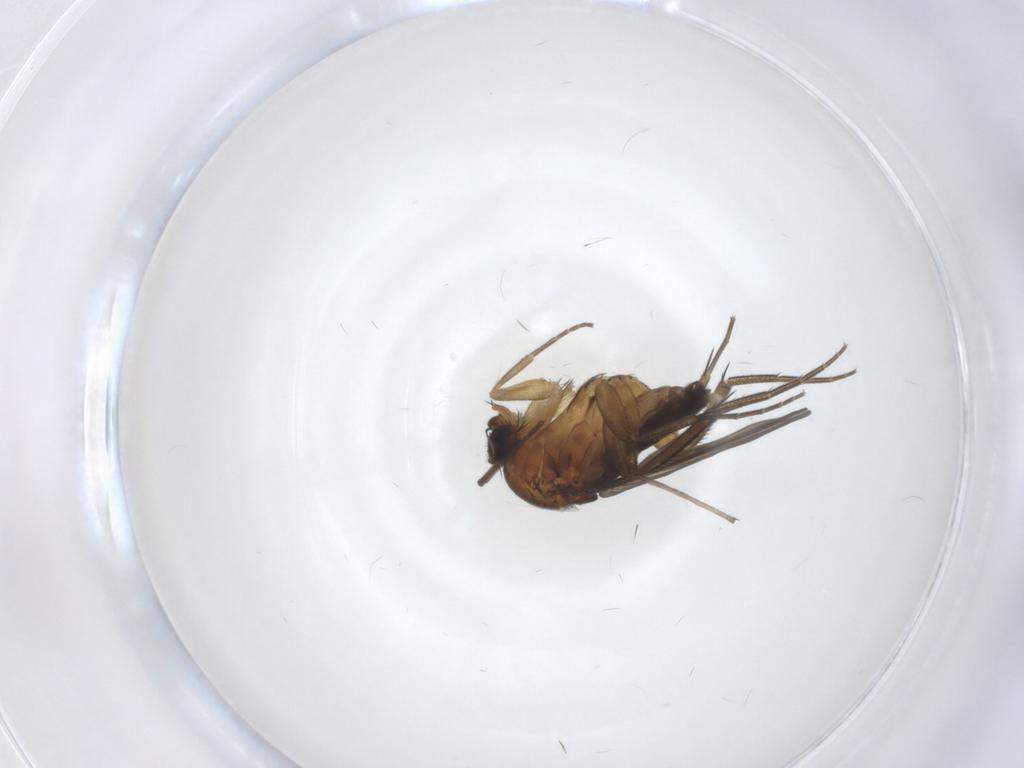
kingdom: Animalia
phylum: Arthropoda
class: Insecta
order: Diptera
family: Phoridae
